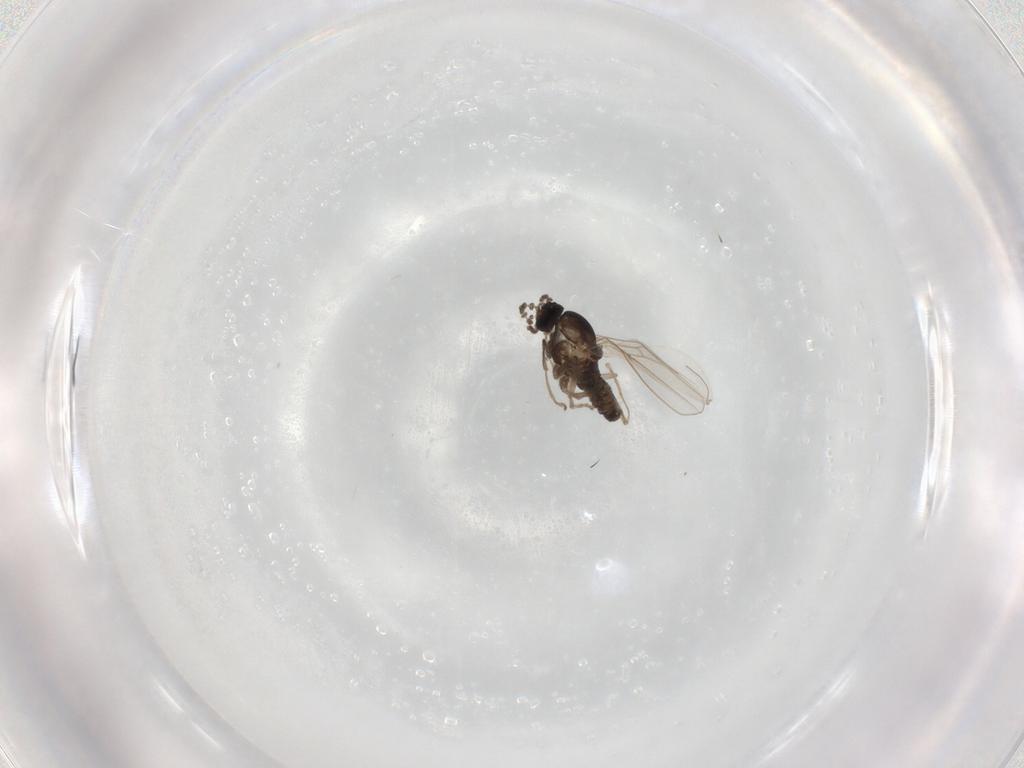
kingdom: Animalia
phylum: Arthropoda
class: Insecta
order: Diptera
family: Cecidomyiidae
